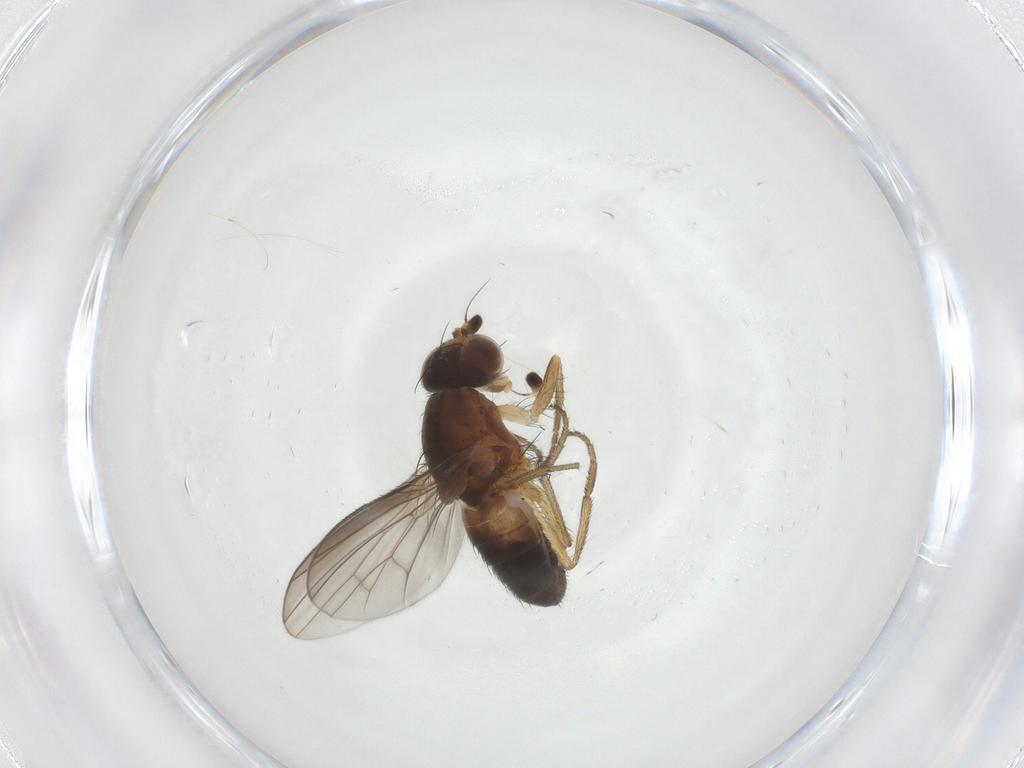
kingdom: Animalia
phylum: Arthropoda
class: Insecta
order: Diptera
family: Heleomyzidae
